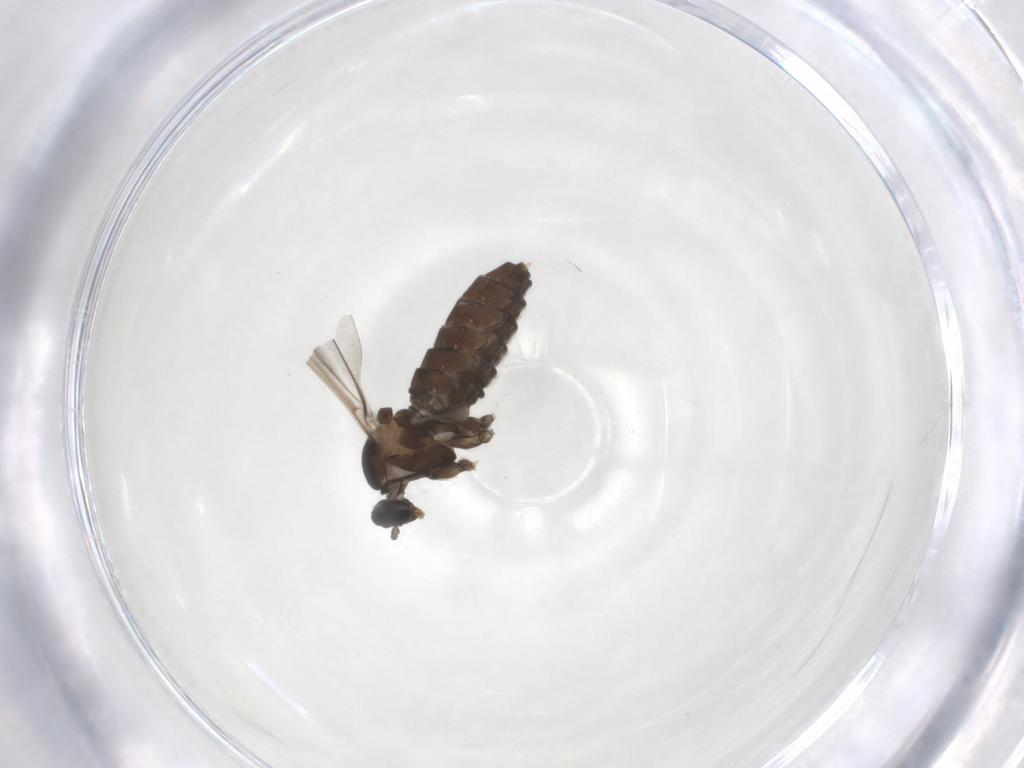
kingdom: Animalia
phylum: Arthropoda
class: Insecta
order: Diptera
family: Cecidomyiidae
